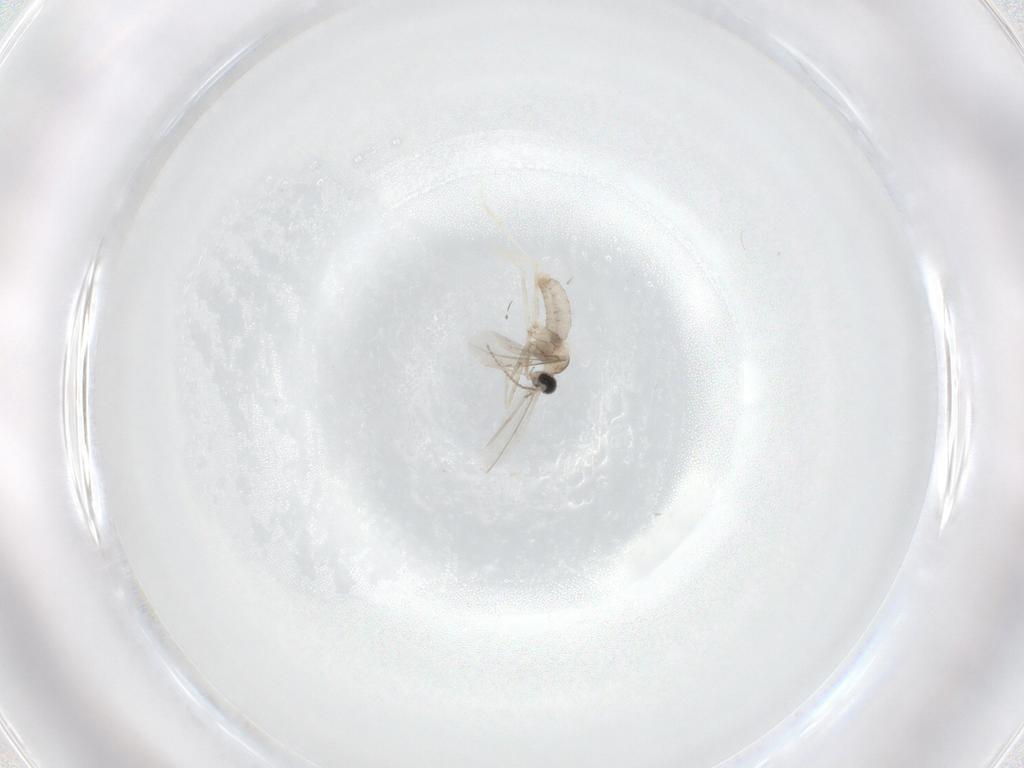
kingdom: Animalia
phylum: Arthropoda
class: Insecta
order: Diptera
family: Cecidomyiidae
